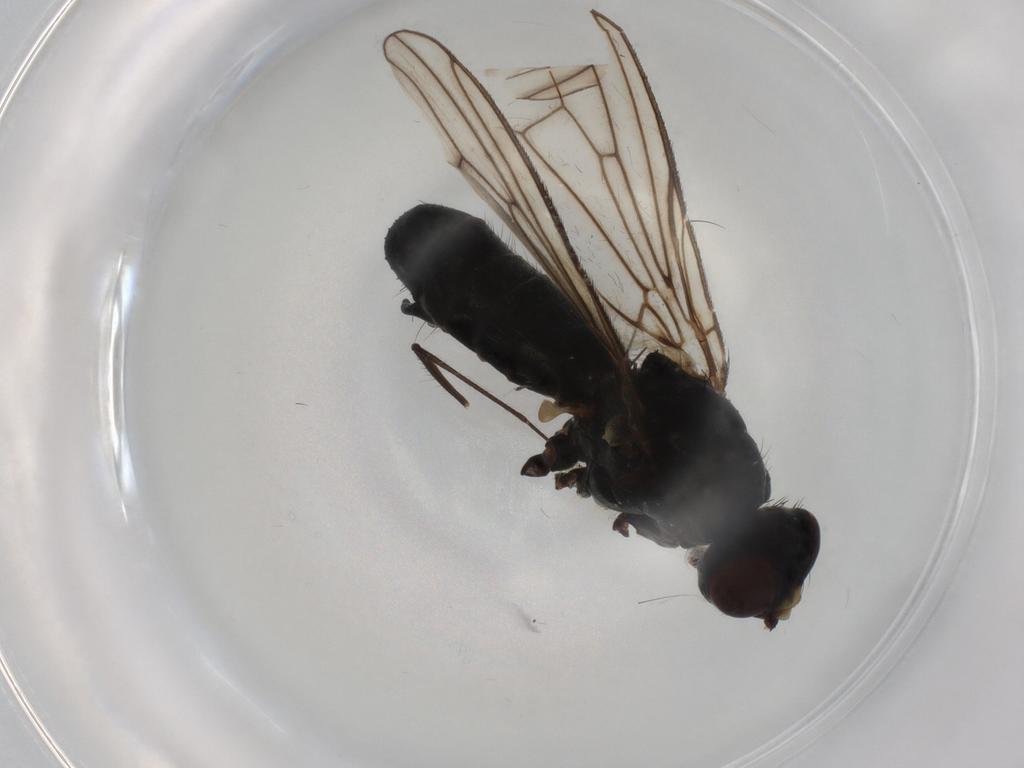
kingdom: Animalia
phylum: Arthropoda
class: Insecta
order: Diptera
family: Scathophagidae
